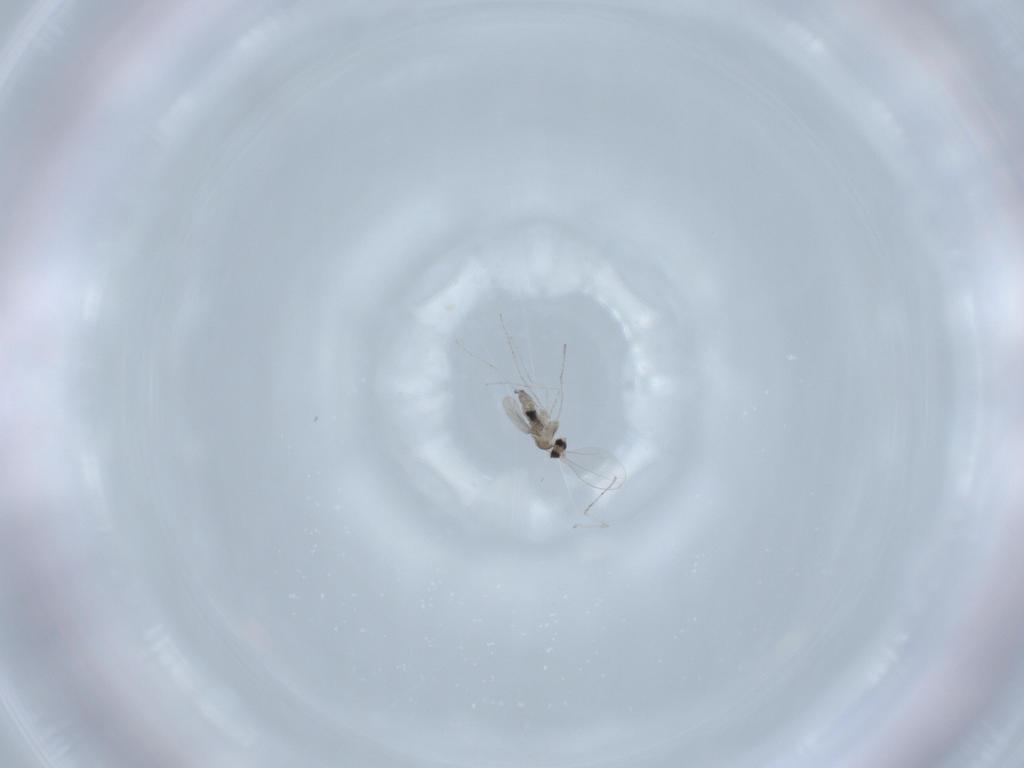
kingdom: Animalia
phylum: Arthropoda
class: Insecta
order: Diptera
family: Cecidomyiidae
